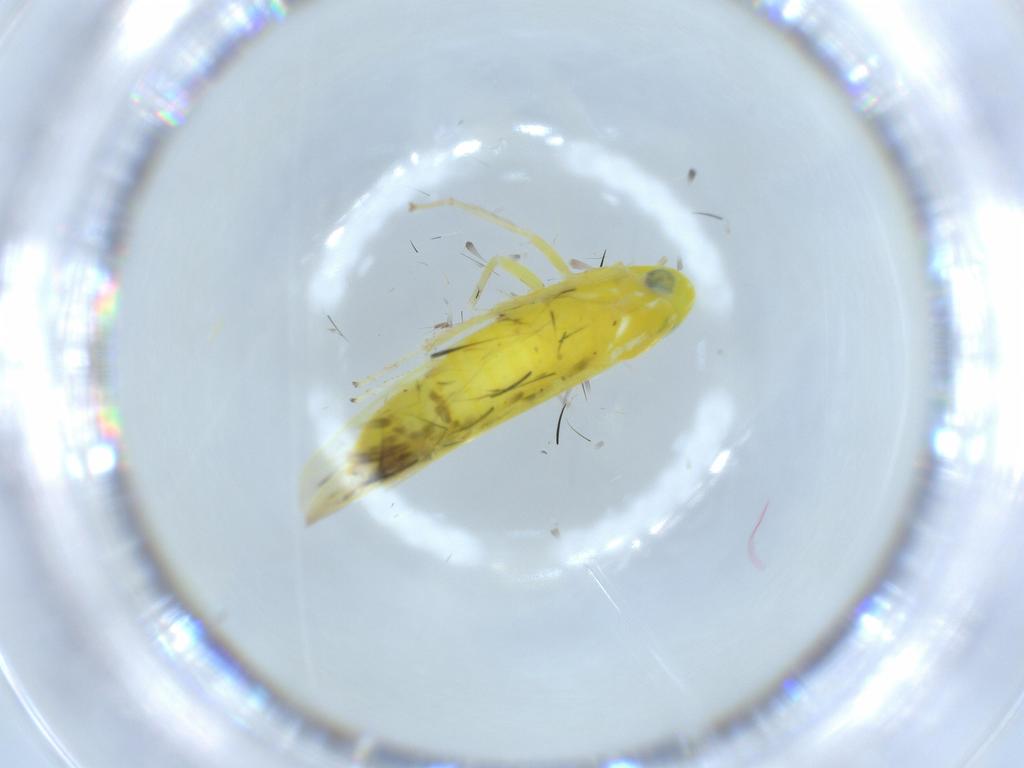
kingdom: Animalia
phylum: Arthropoda
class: Insecta
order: Hemiptera
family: Cicadellidae
